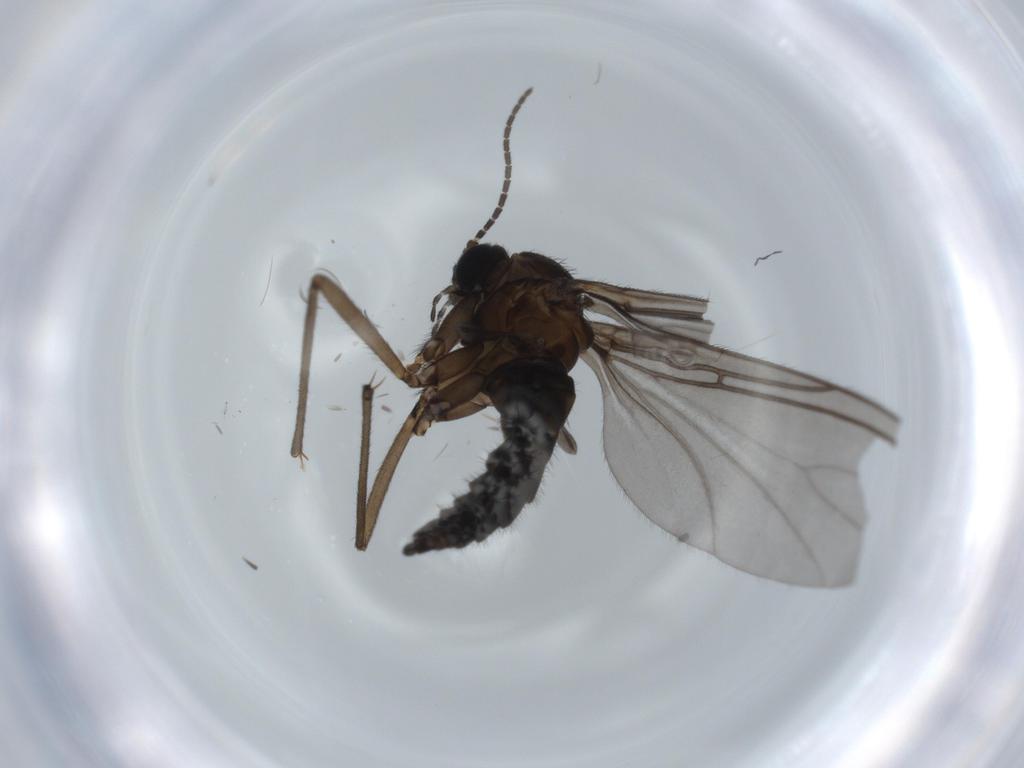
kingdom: Animalia
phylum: Arthropoda
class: Insecta
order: Diptera
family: Sciaridae
